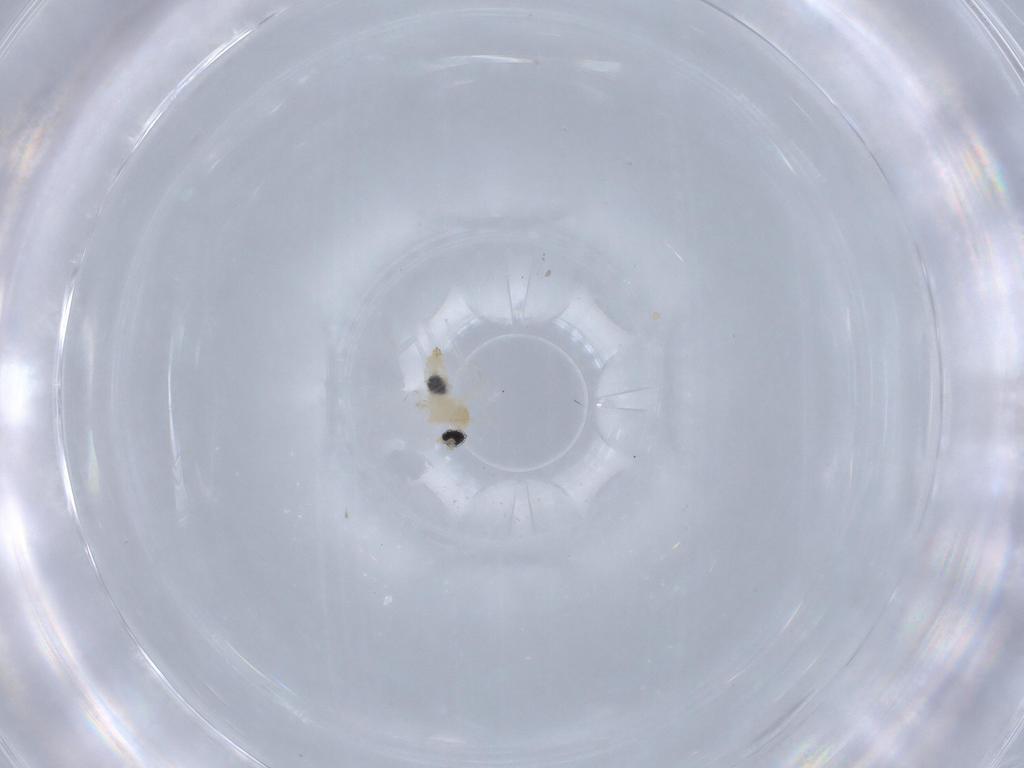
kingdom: Animalia
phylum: Arthropoda
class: Insecta
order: Diptera
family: Cecidomyiidae
